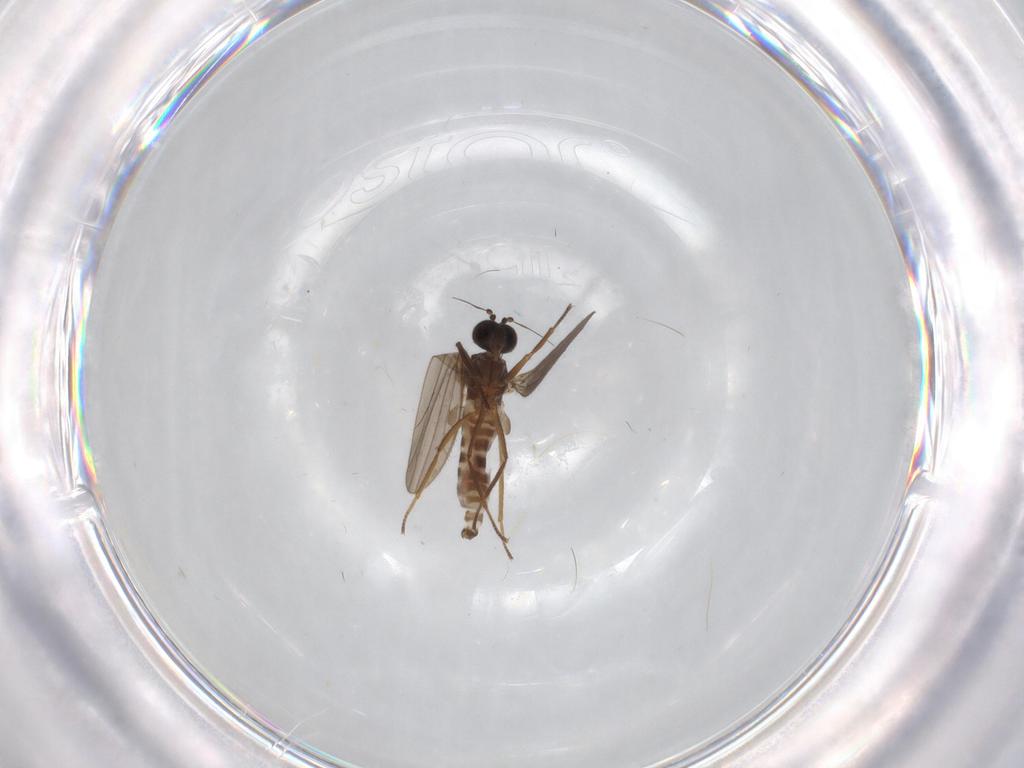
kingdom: Animalia
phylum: Arthropoda
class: Insecta
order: Diptera
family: Empididae
